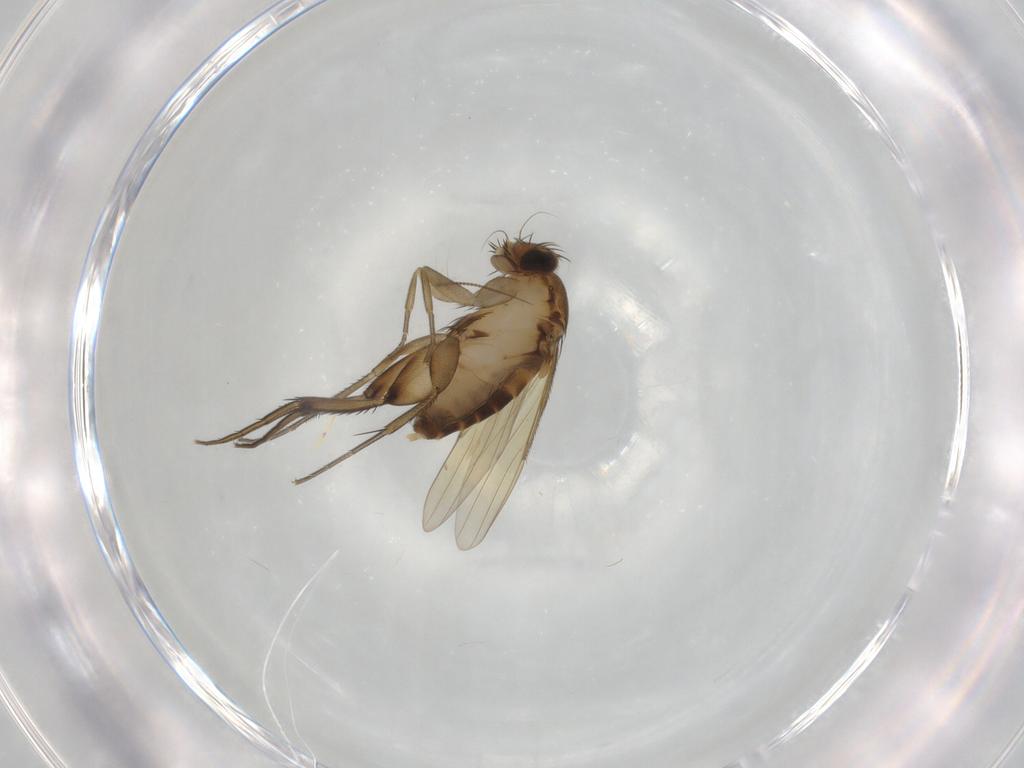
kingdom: Animalia
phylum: Arthropoda
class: Insecta
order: Diptera
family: Phoridae
